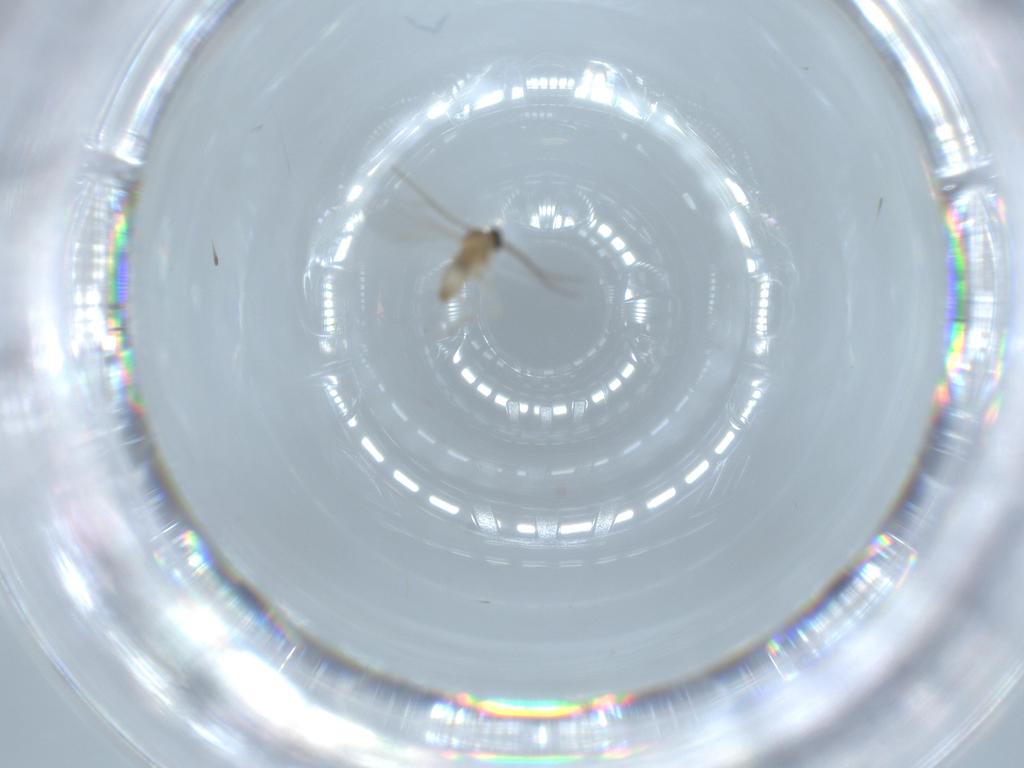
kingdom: Animalia
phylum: Arthropoda
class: Insecta
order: Diptera
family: Cecidomyiidae
